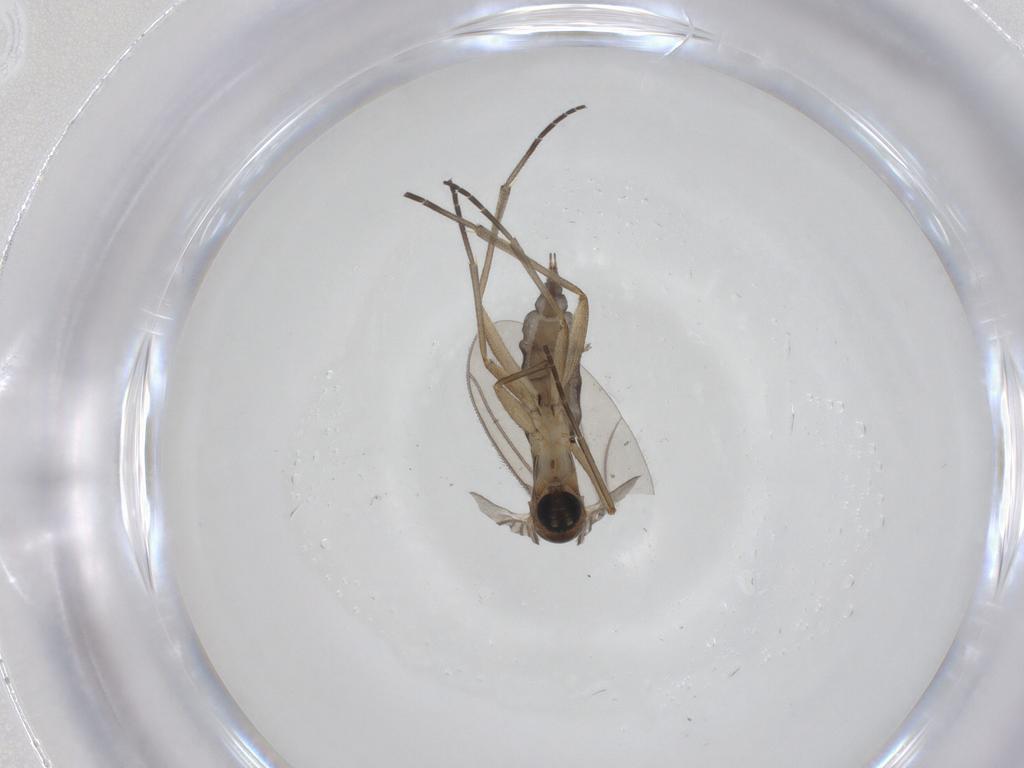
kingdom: Animalia
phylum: Arthropoda
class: Insecta
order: Diptera
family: Sciaridae
